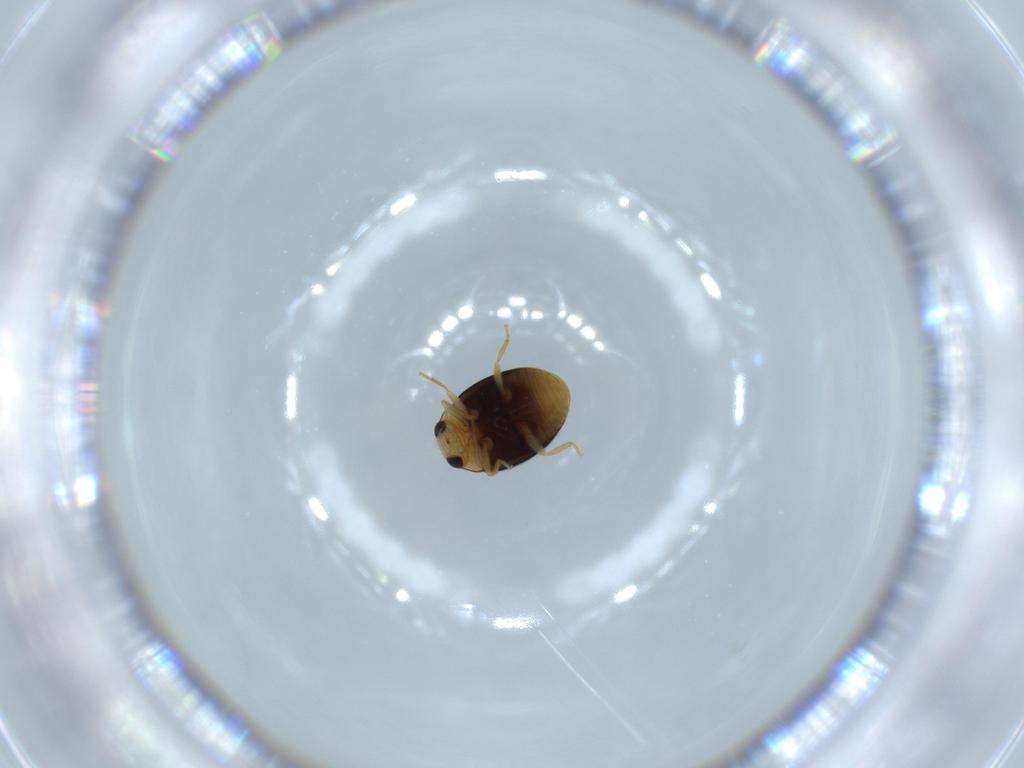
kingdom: Animalia
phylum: Arthropoda
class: Insecta
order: Coleoptera
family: Coccinellidae
